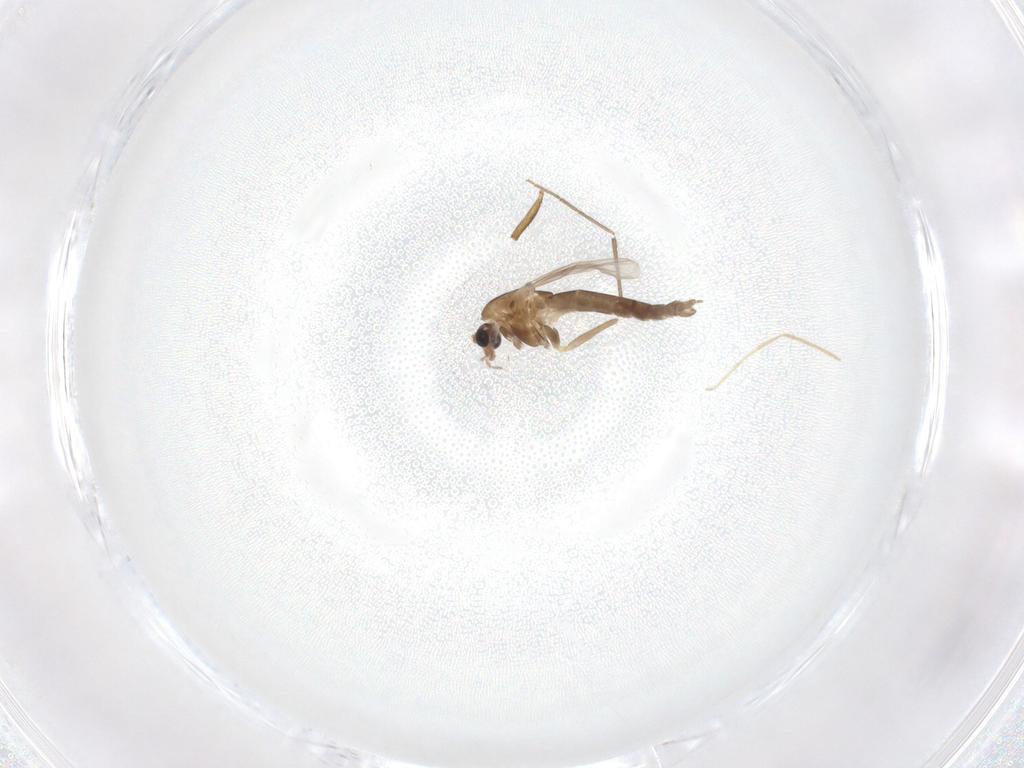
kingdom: Animalia
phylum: Arthropoda
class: Insecta
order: Diptera
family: Chironomidae
